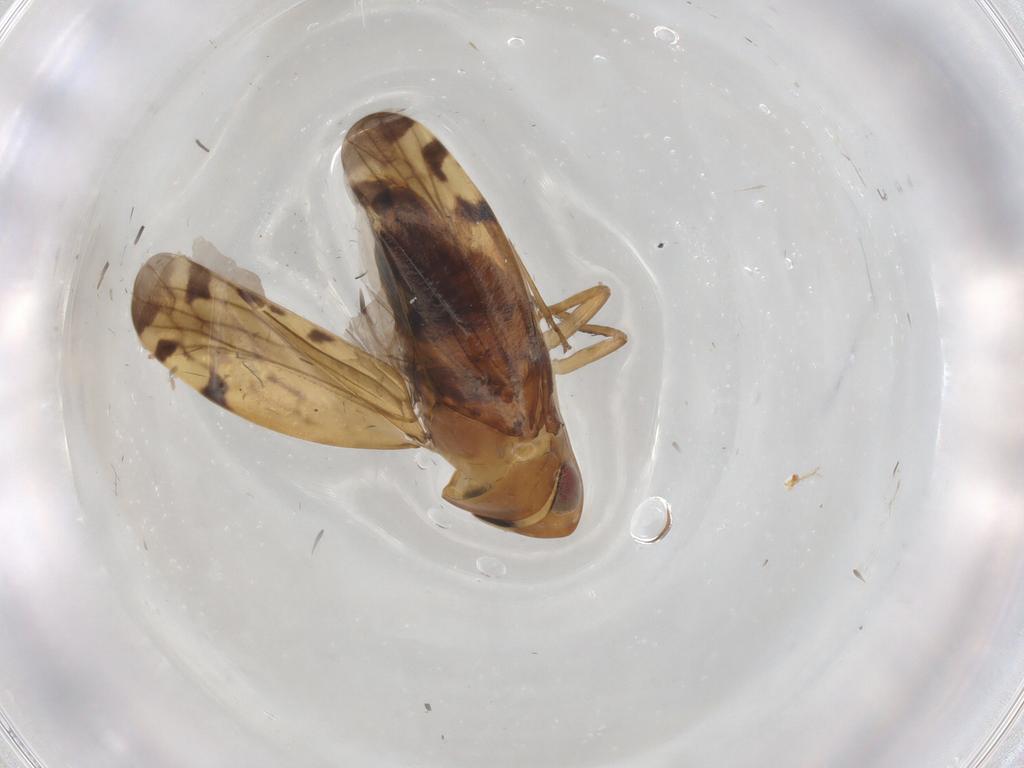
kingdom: Animalia
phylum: Arthropoda
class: Insecta
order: Hemiptera
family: Cicadellidae
